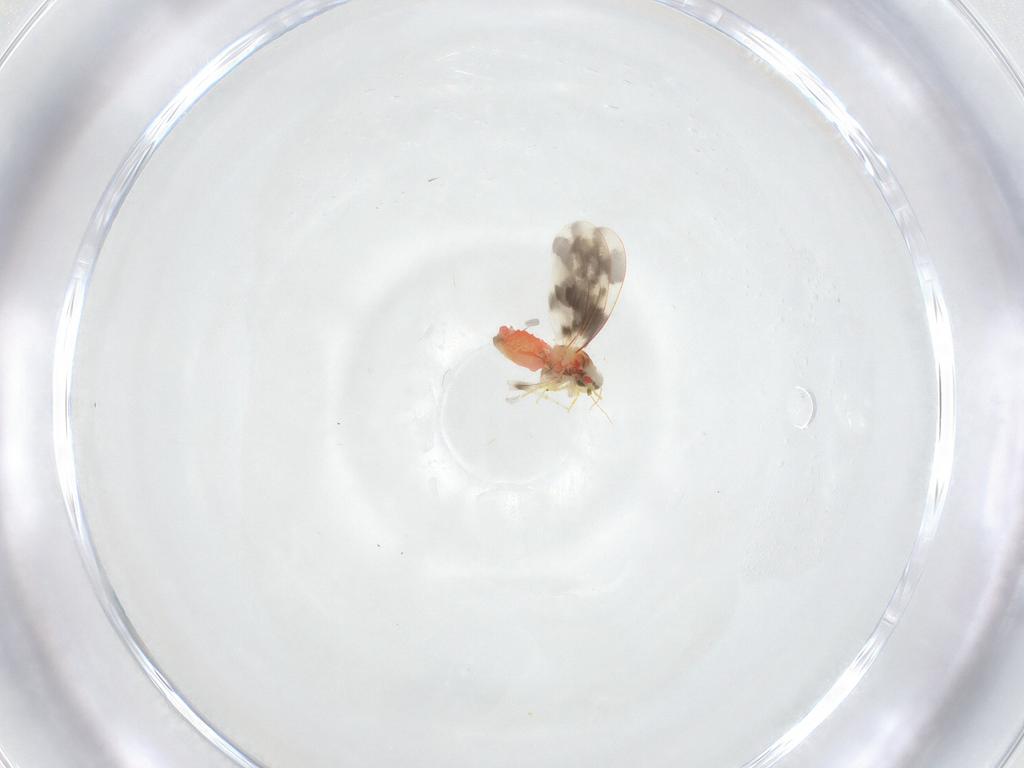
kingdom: Animalia
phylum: Arthropoda
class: Insecta
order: Hemiptera
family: Aleyrodidae
